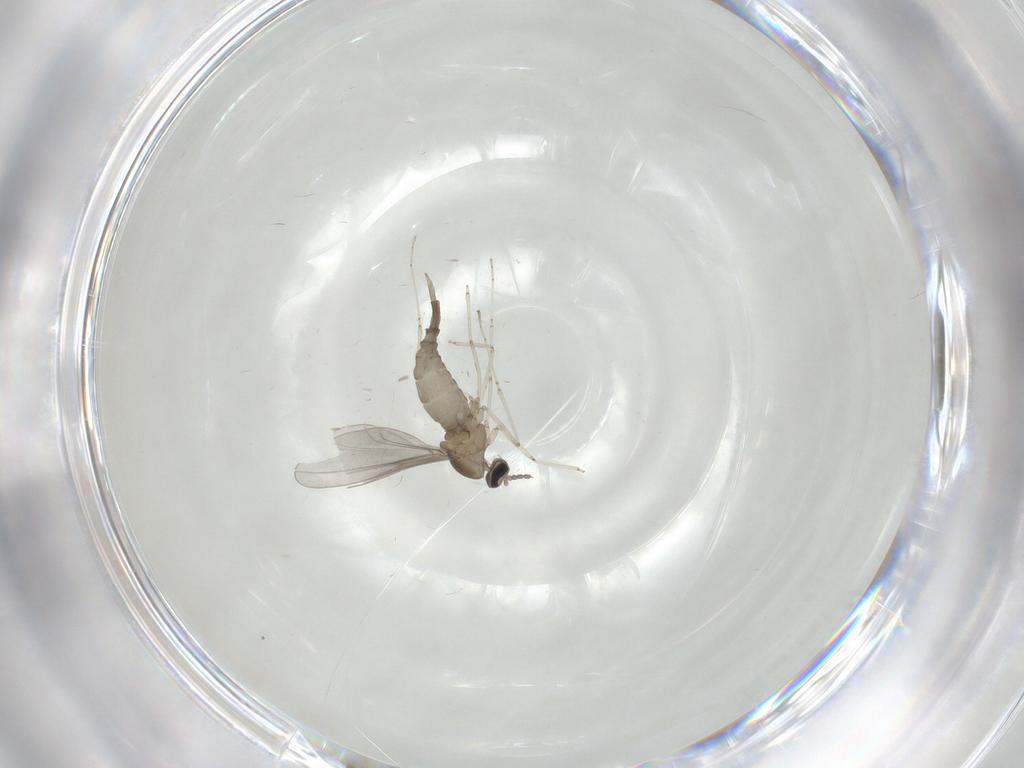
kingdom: Animalia
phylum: Arthropoda
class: Insecta
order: Diptera
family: Cecidomyiidae
